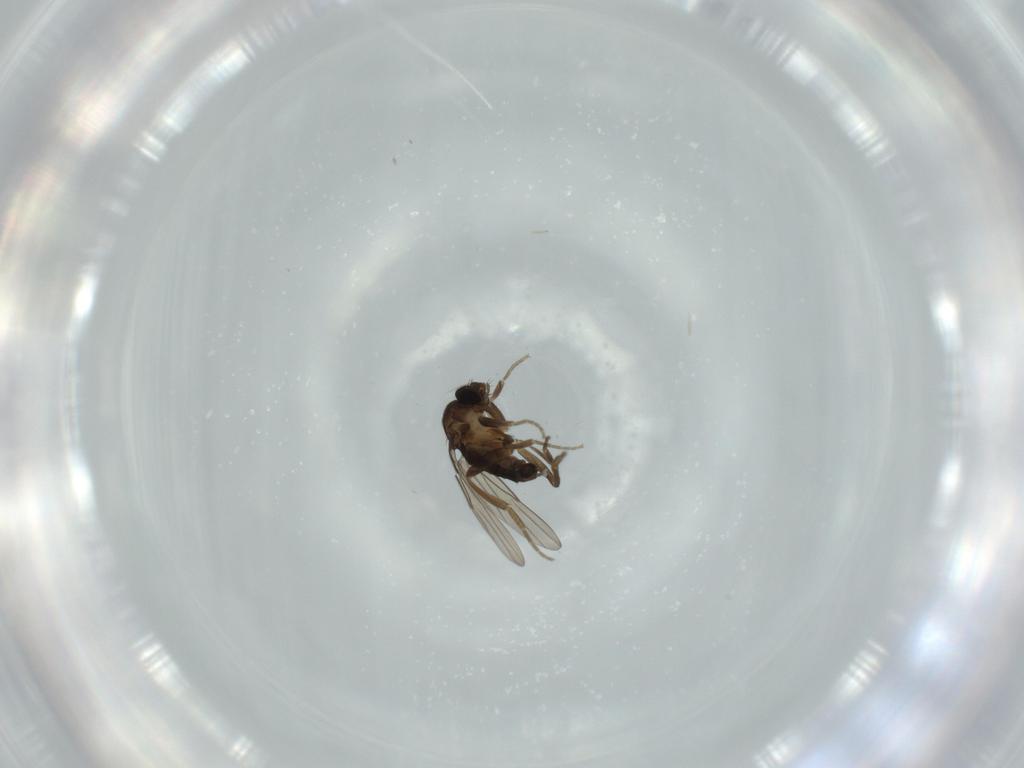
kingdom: Animalia
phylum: Arthropoda
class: Insecta
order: Diptera
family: Phoridae
